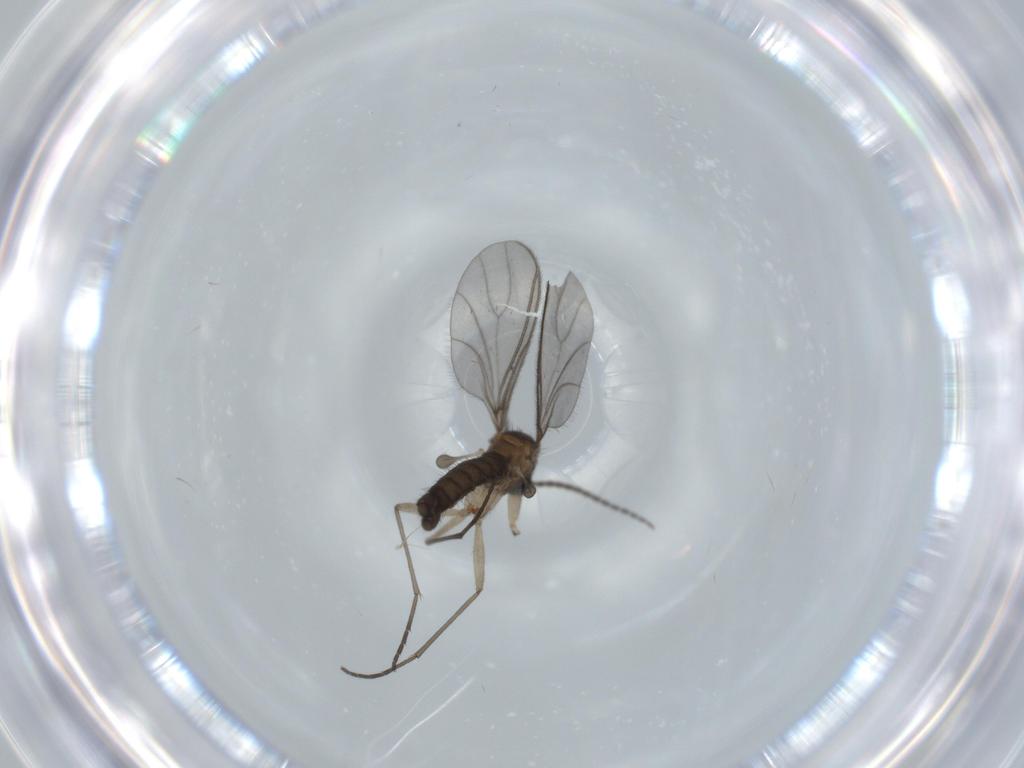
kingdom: Animalia
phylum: Arthropoda
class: Insecta
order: Diptera
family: Sciaridae
